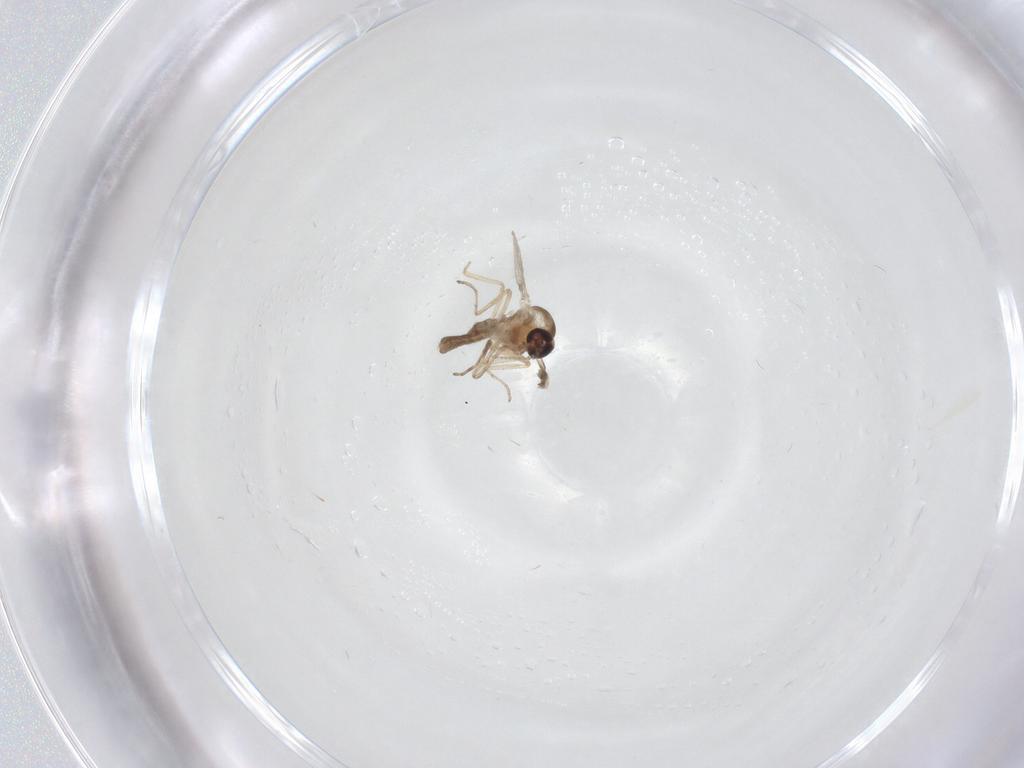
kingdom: Animalia
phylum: Arthropoda
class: Insecta
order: Diptera
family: Ceratopogonidae
